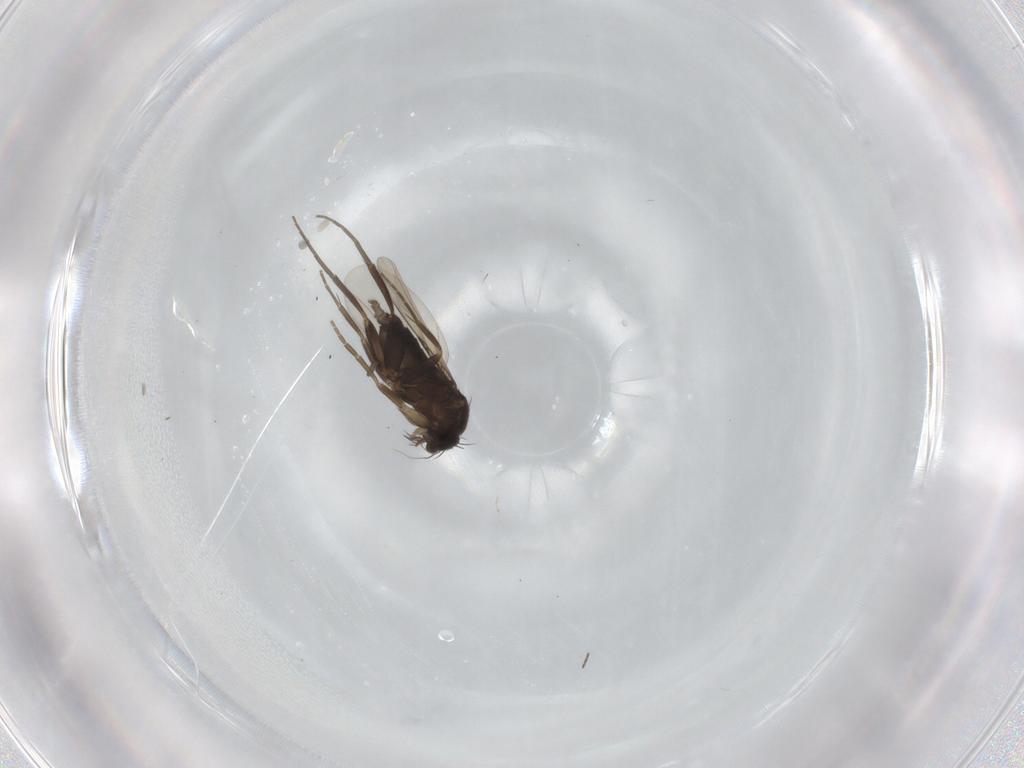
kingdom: Animalia
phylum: Arthropoda
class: Insecta
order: Diptera
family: Phoridae
